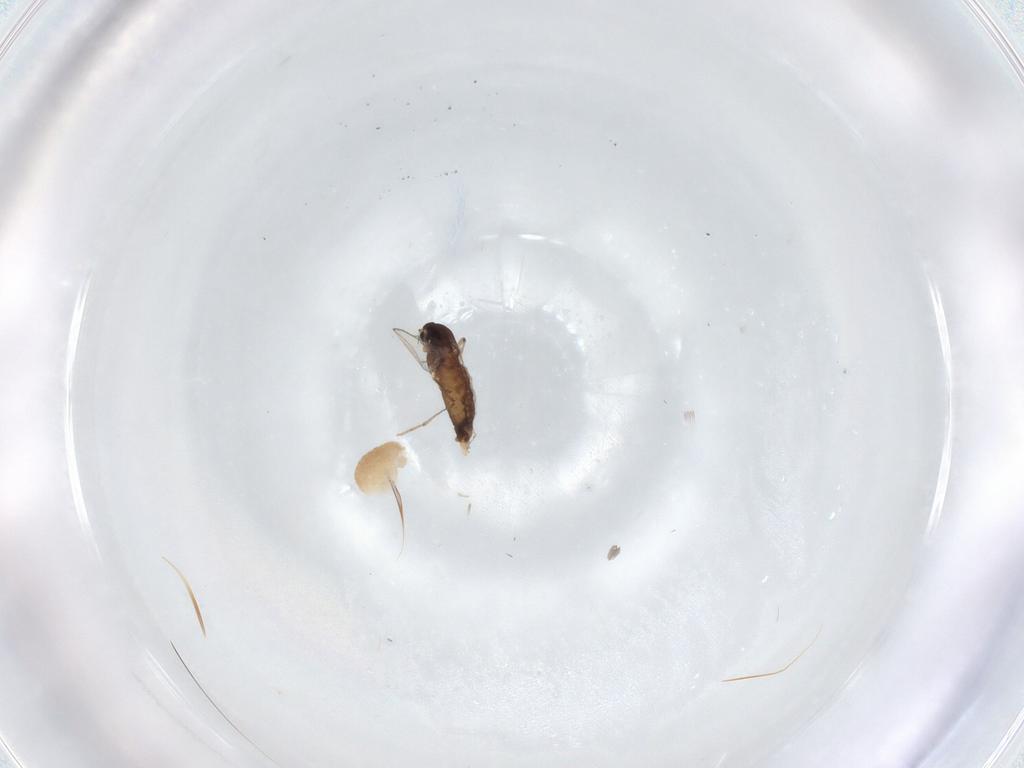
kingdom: Animalia
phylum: Arthropoda
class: Insecta
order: Diptera
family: Chironomidae
